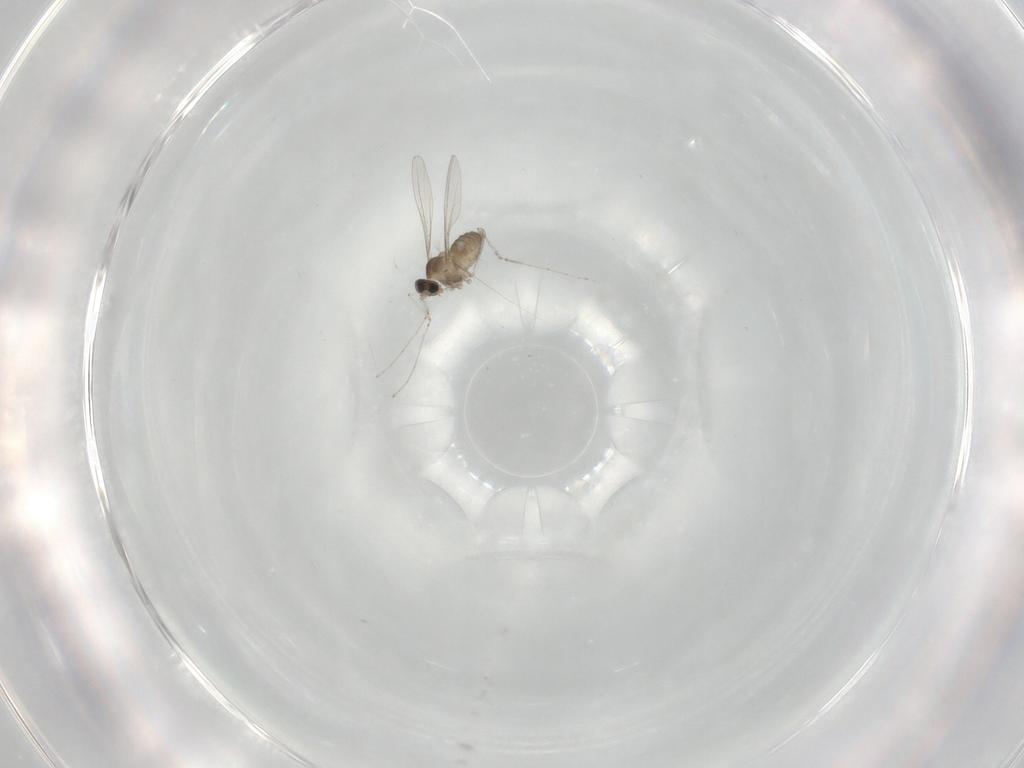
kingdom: Animalia
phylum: Arthropoda
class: Insecta
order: Diptera
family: Cecidomyiidae
